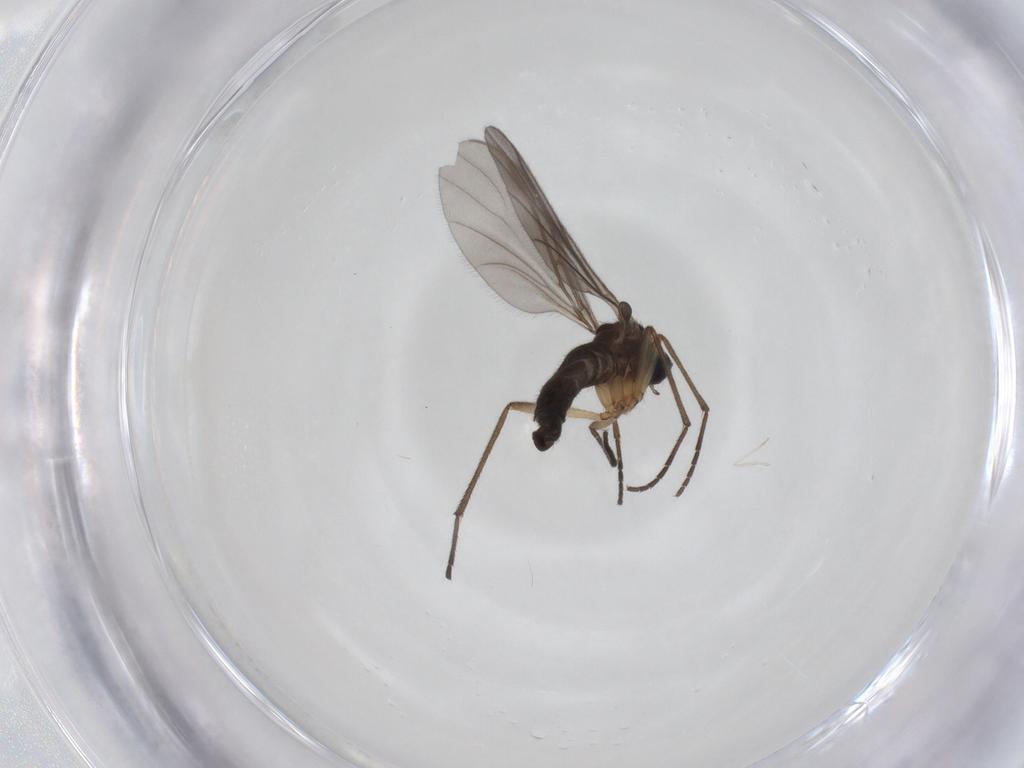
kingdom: Animalia
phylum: Arthropoda
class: Insecta
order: Diptera
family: Sciaridae
